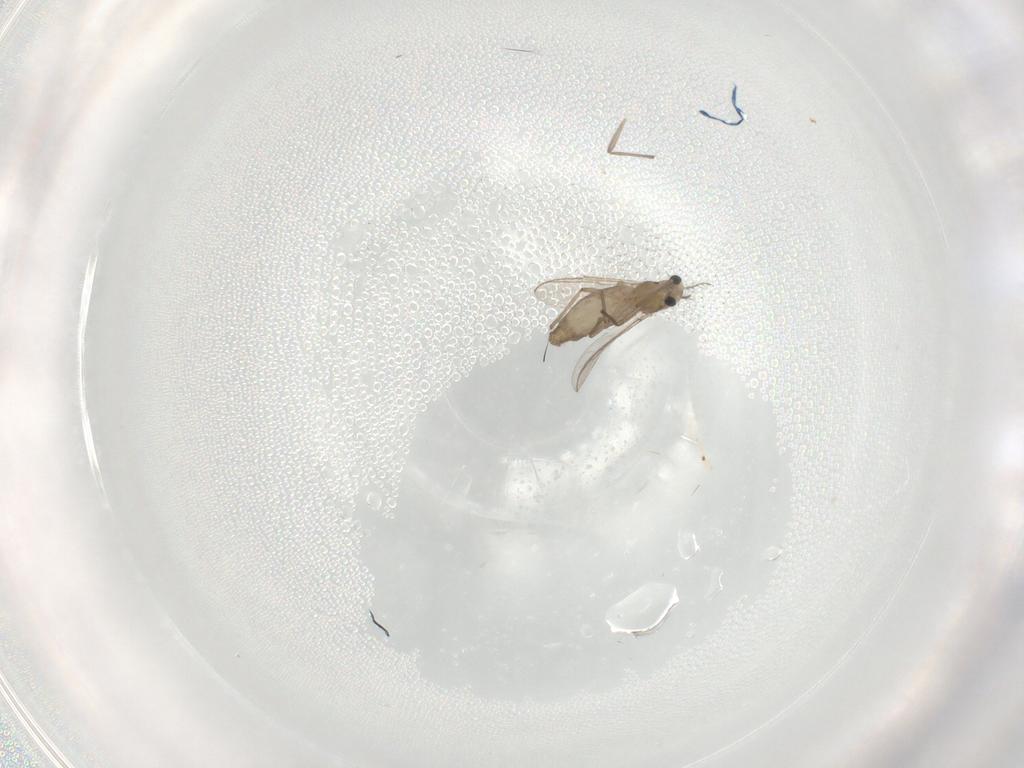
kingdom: Animalia
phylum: Arthropoda
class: Insecta
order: Diptera
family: Chironomidae
